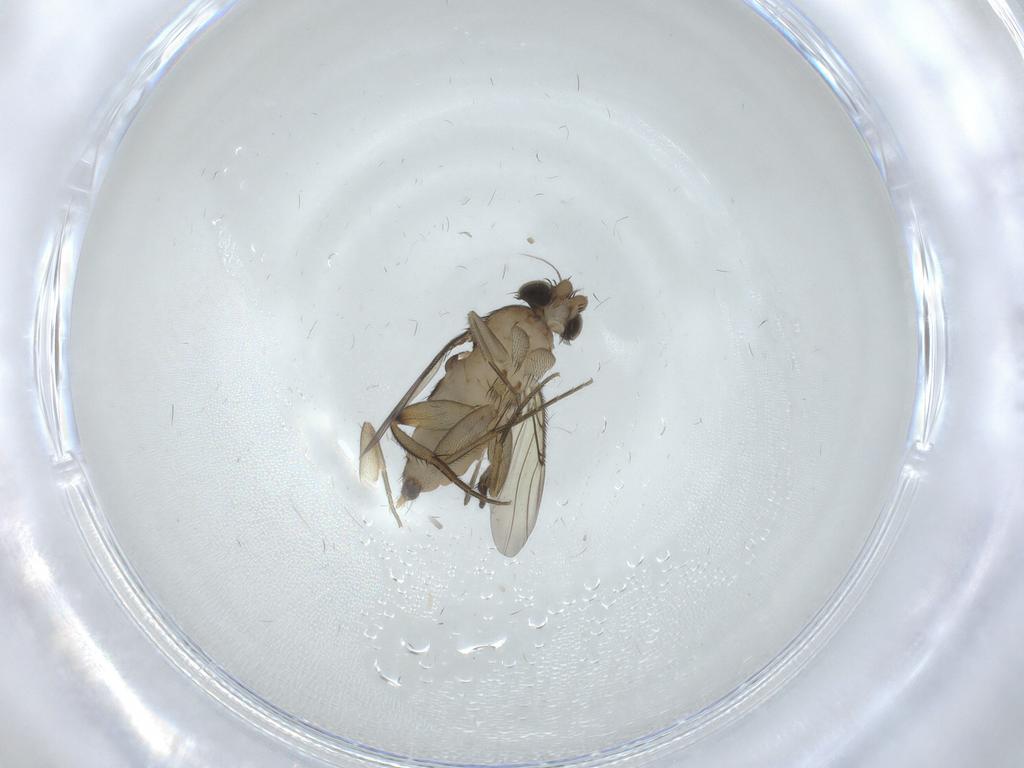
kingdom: Animalia
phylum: Arthropoda
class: Insecta
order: Diptera
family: Phoridae
